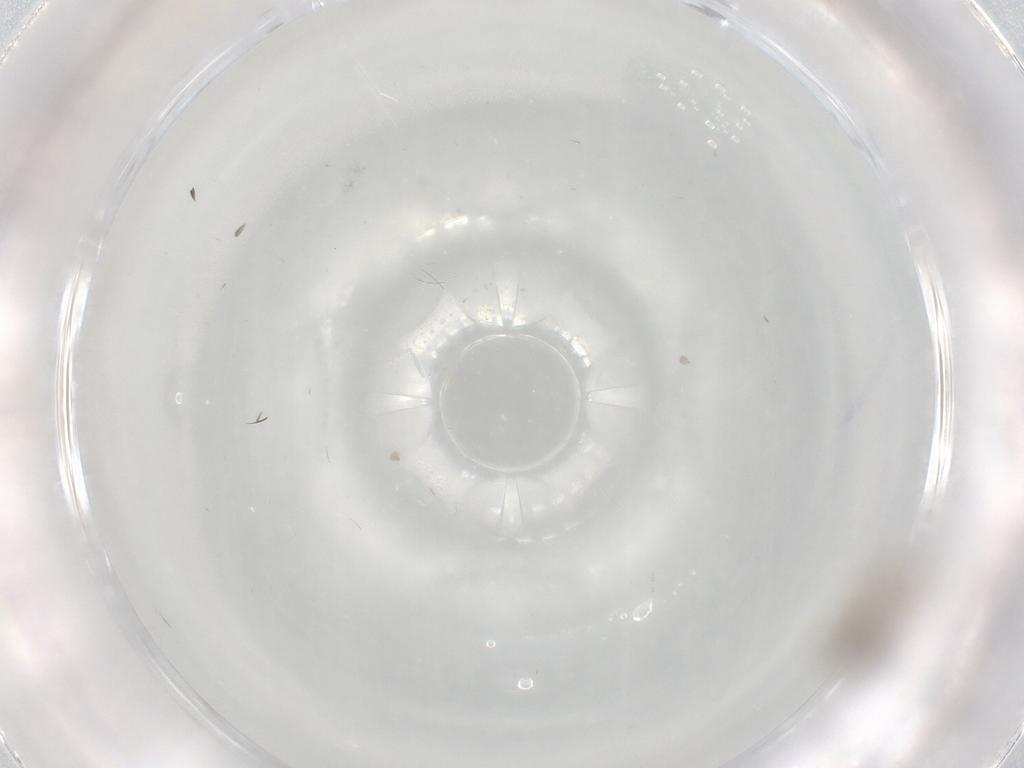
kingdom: Animalia
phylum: Arthropoda
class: Insecta
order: Diptera
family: Chironomidae
